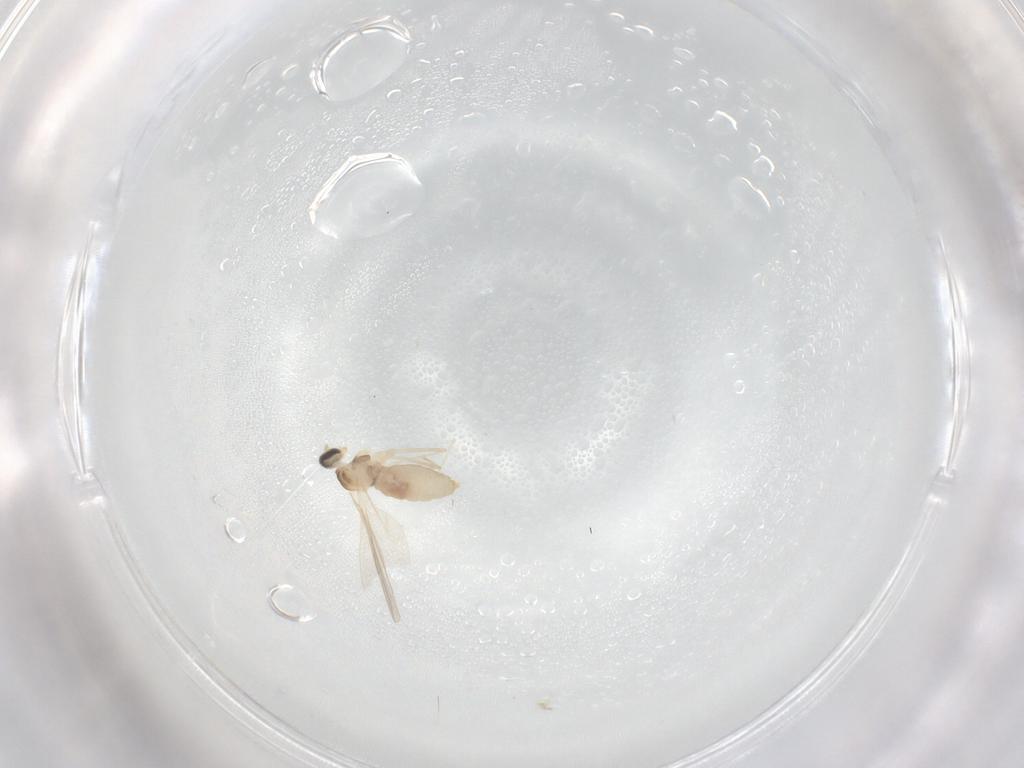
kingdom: Animalia
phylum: Arthropoda
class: Insecta
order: Diptera
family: Cecidomyiidae
